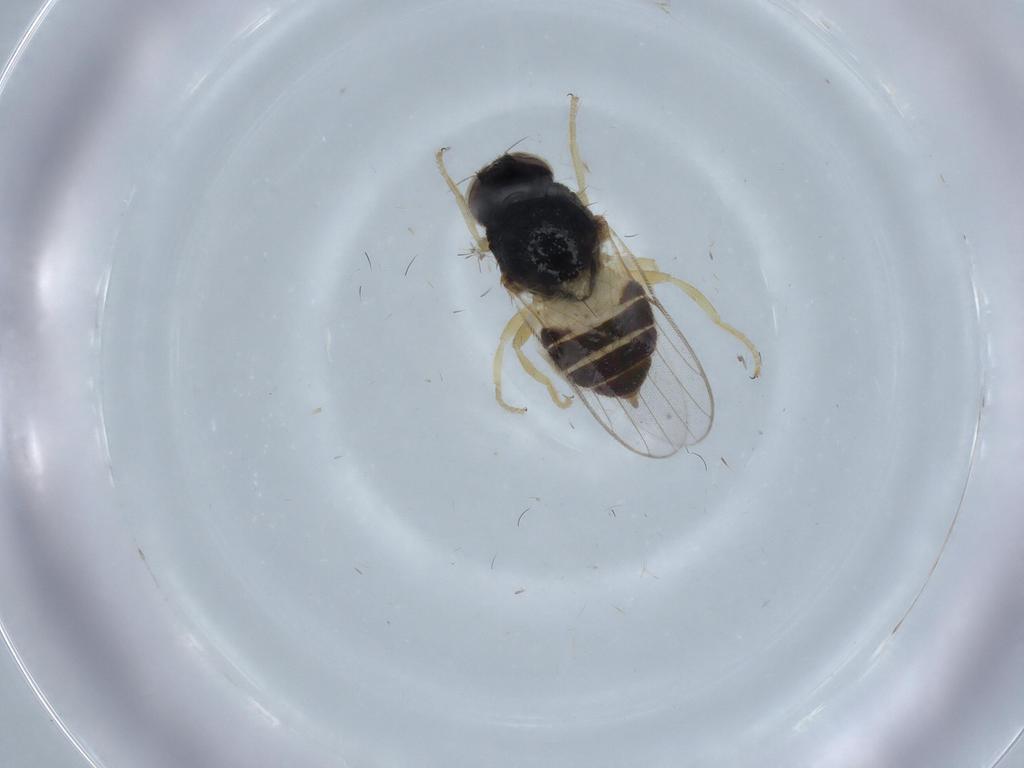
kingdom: Animalia
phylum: Arthropoda
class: Insecta
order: Diptera
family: Chloropidae
